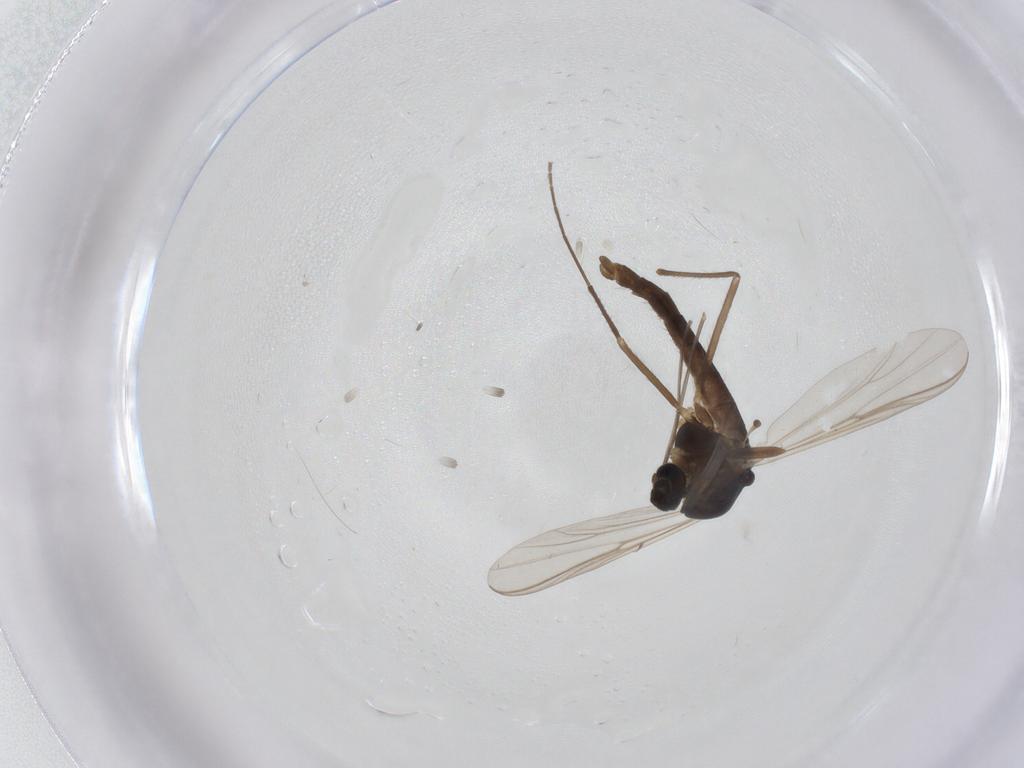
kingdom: Animalia
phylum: Arthropoda
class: Insecta
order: Diptera
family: Chironomidae
